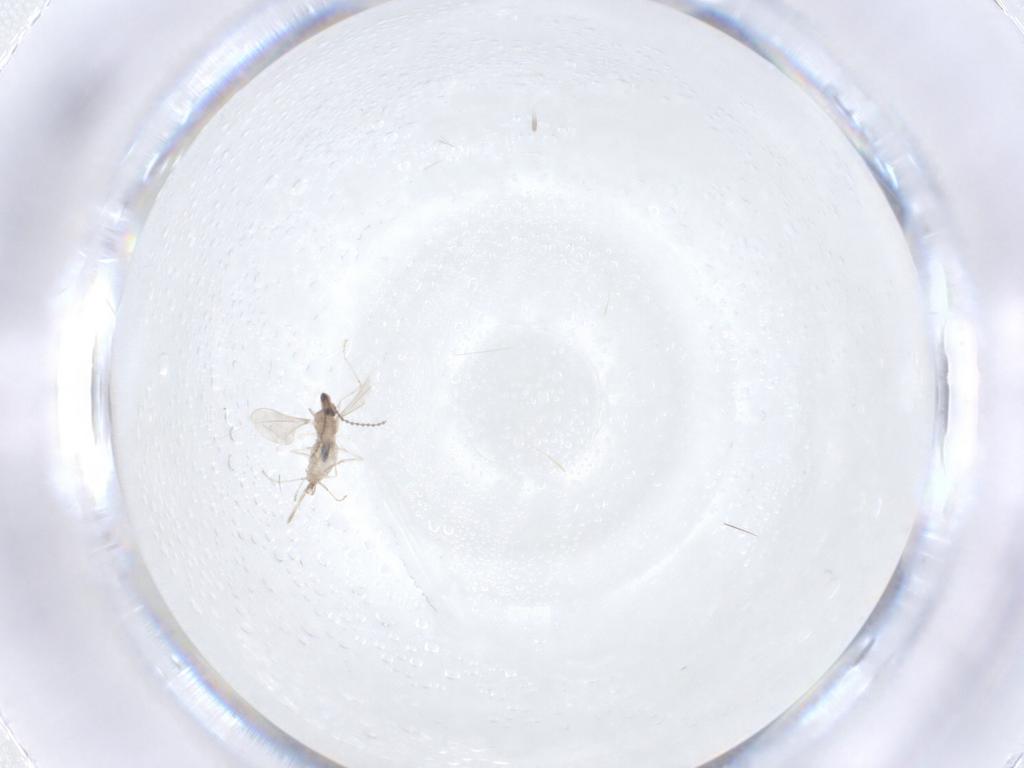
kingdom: Animalia
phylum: Arthropoda
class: Insecta
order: Diptera
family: Cecidomyiidae
